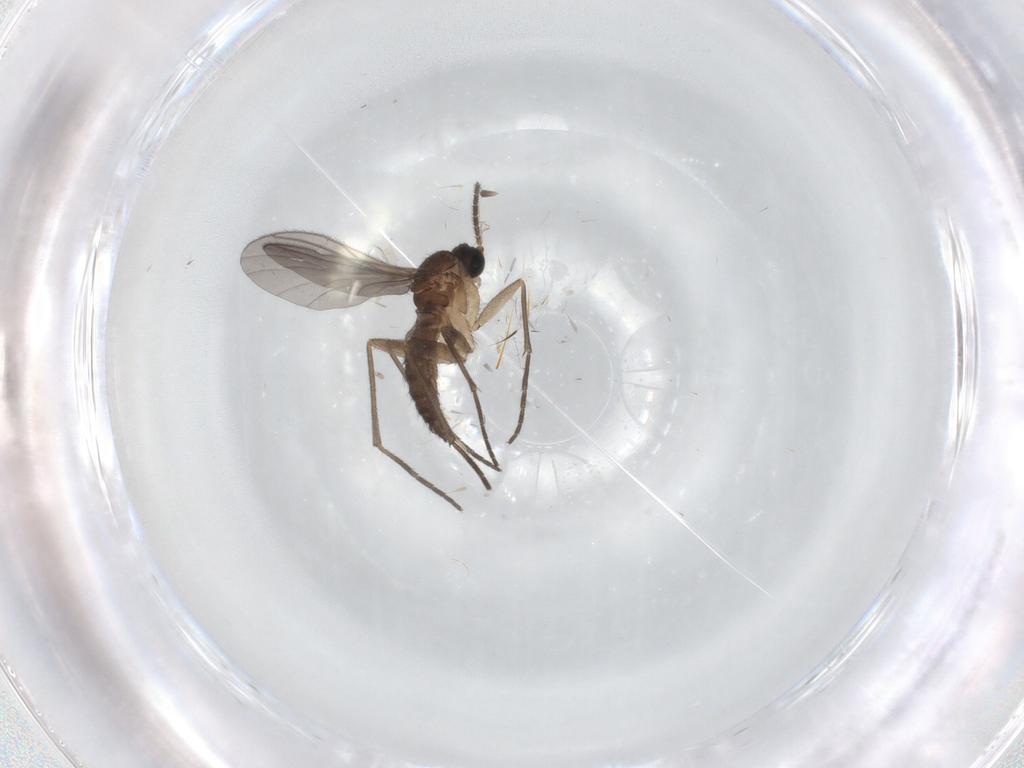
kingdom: Animalia
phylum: Arthropoda
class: Insecta
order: Diptera
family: Sciaridae
